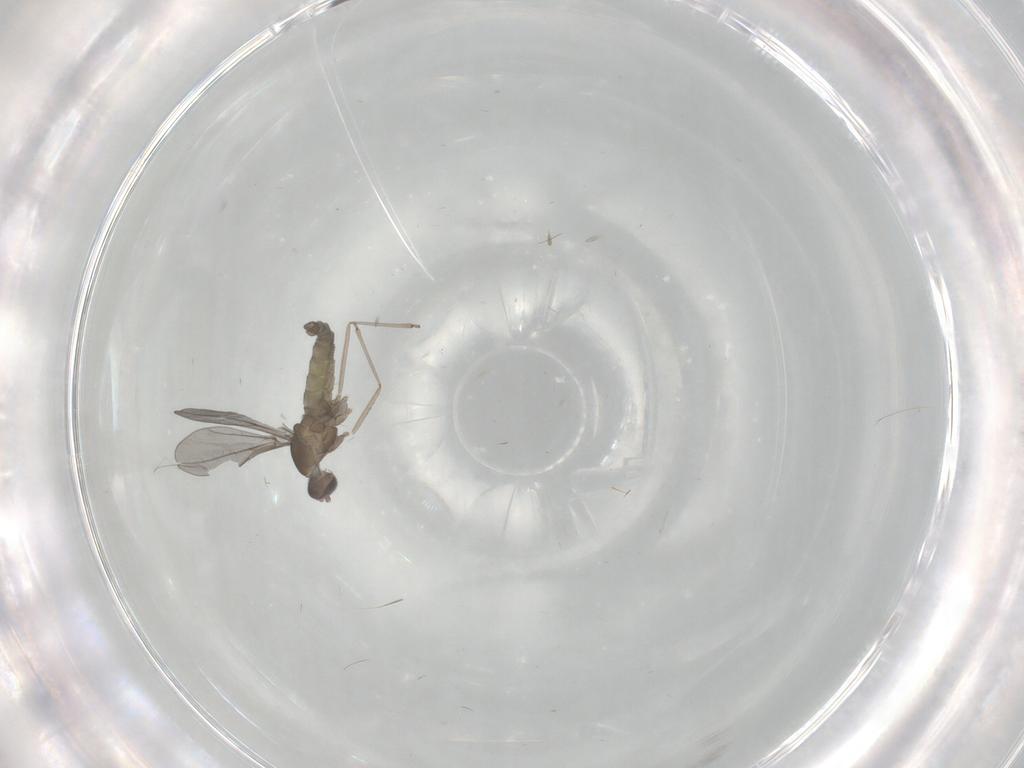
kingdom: Animalia
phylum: Arthropoda
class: Insecta
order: Diptera
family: Cecidomyiidae
